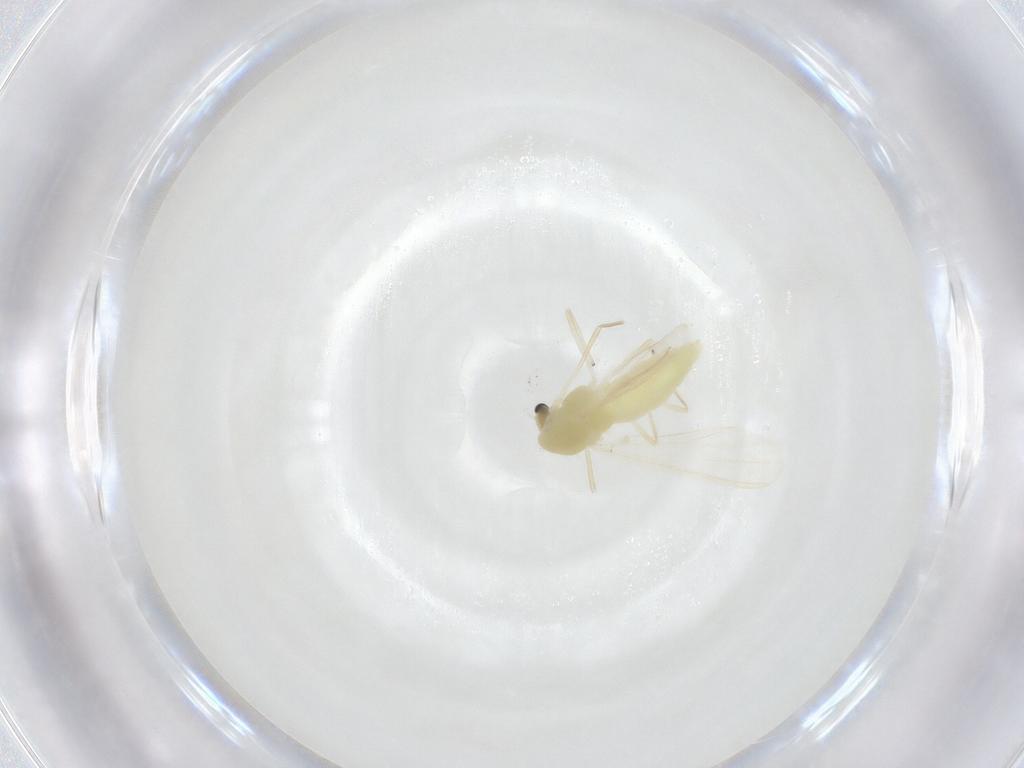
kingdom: Animalia
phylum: Arthropoda
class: Insecta
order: Diptera
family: Chironomidae
